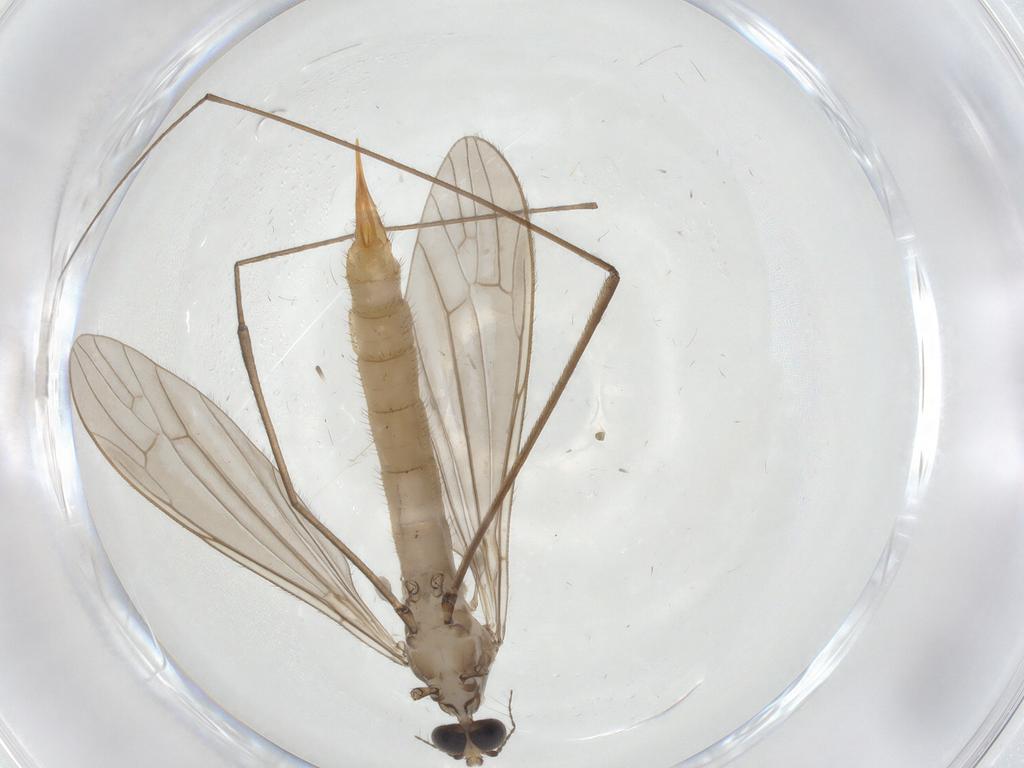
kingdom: Animalia
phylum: Arthropoda
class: Insecta
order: Diptera
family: Limoniidae
